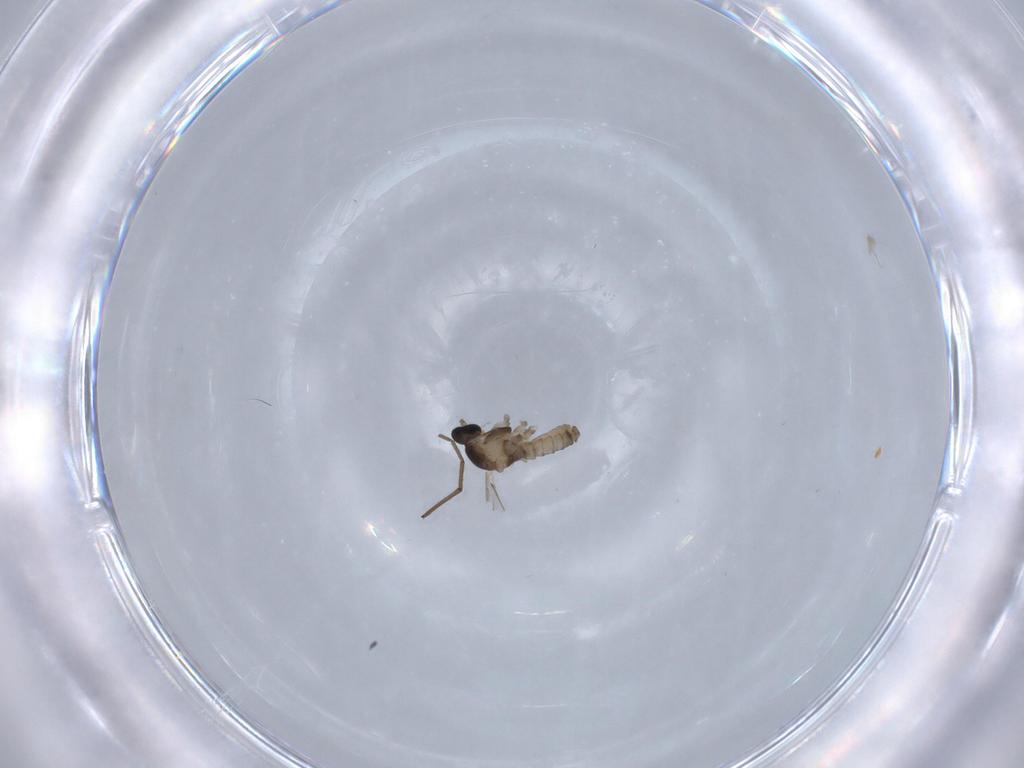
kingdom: Animalia
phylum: Arthropoda
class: Insecta
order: Diptera
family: Cecidomyiidae
